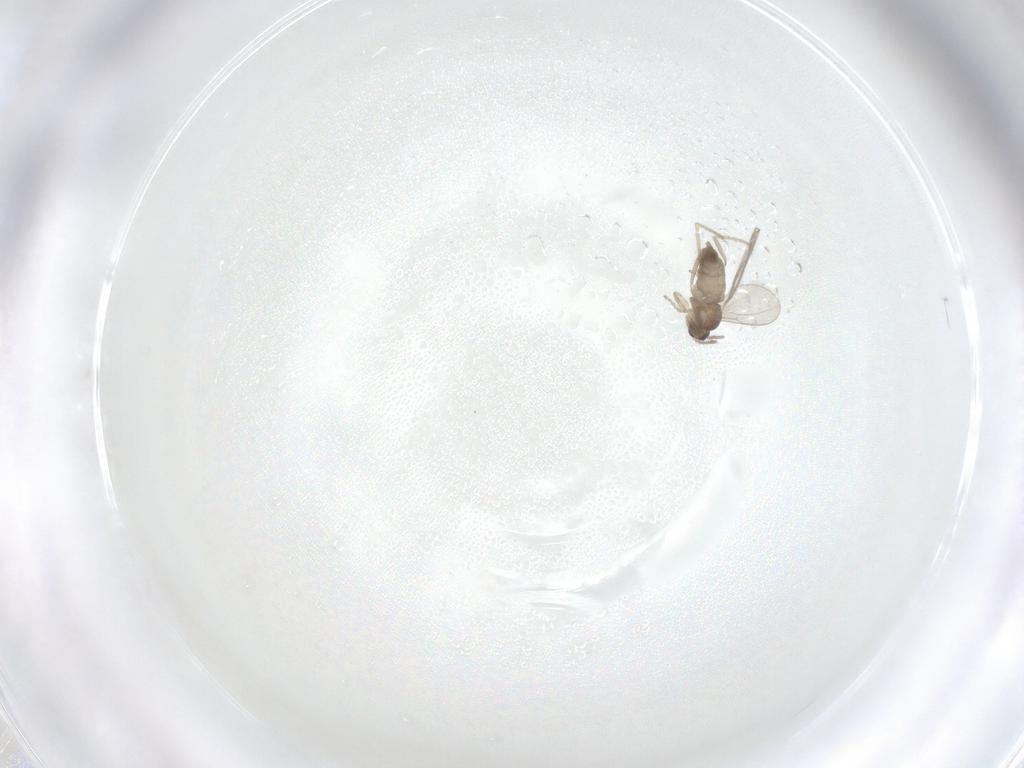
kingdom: Animalia
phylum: Arthropoda
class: Insecta
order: Diptera
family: Cecidomyiidae
